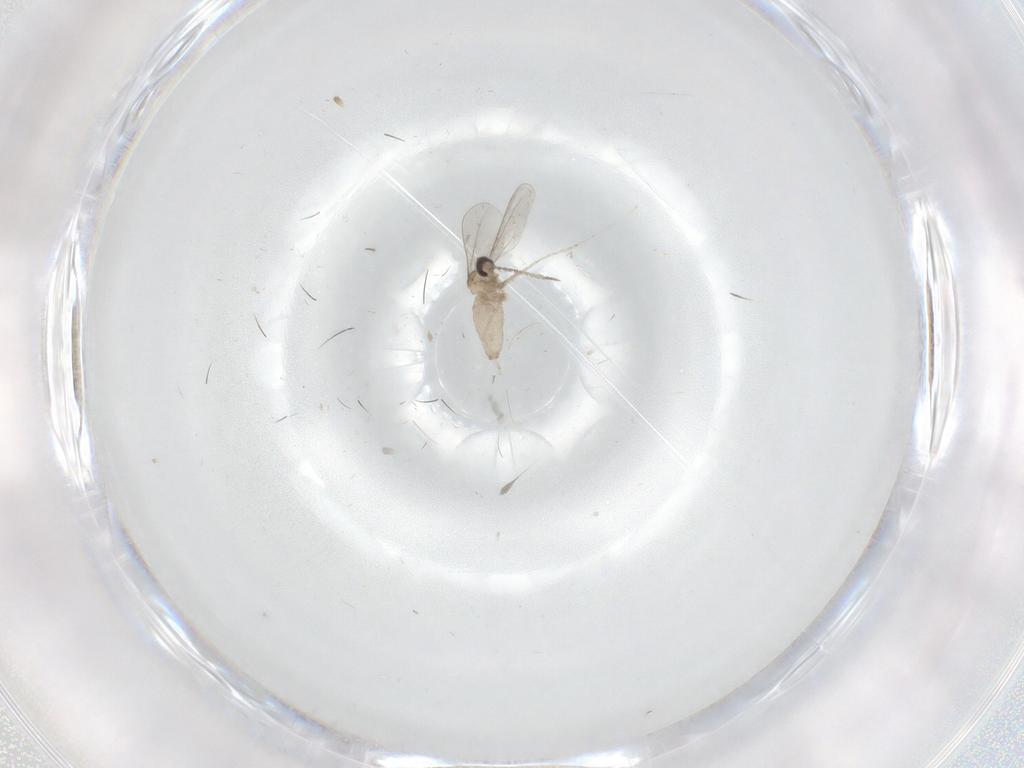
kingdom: Animalia
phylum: Arthropoda
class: Insecta
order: Diptera
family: Cecidomyiidae
